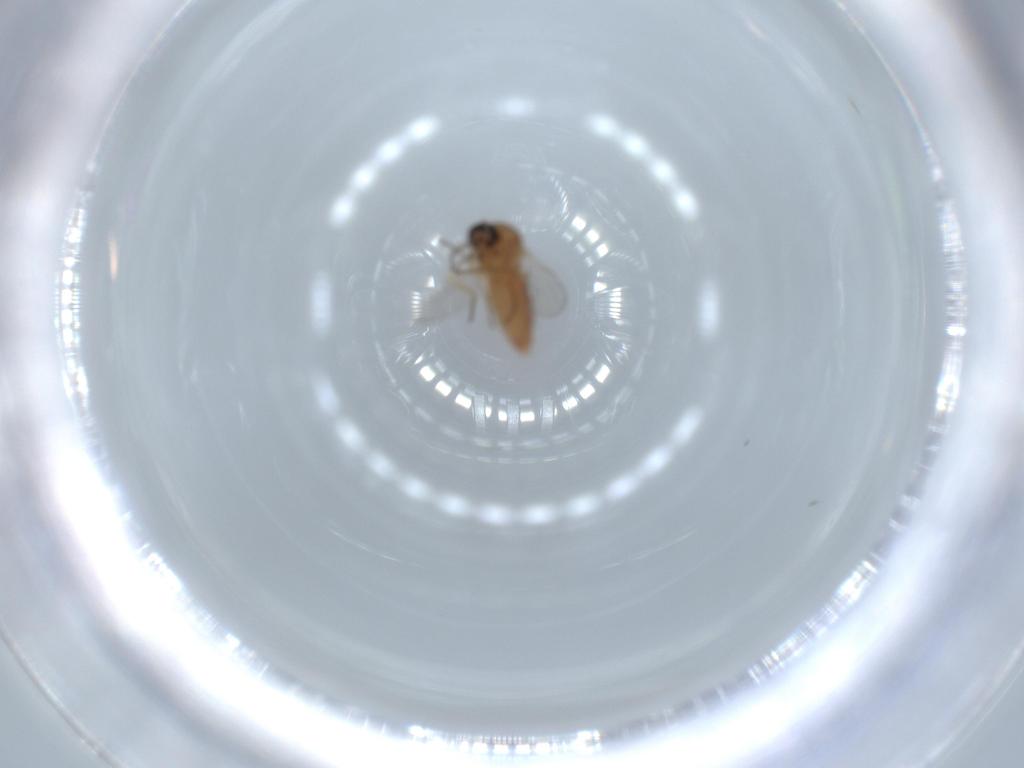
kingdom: Animalia
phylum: Arthropoda
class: Insecta
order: Diptera
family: Ceratopogonidae
